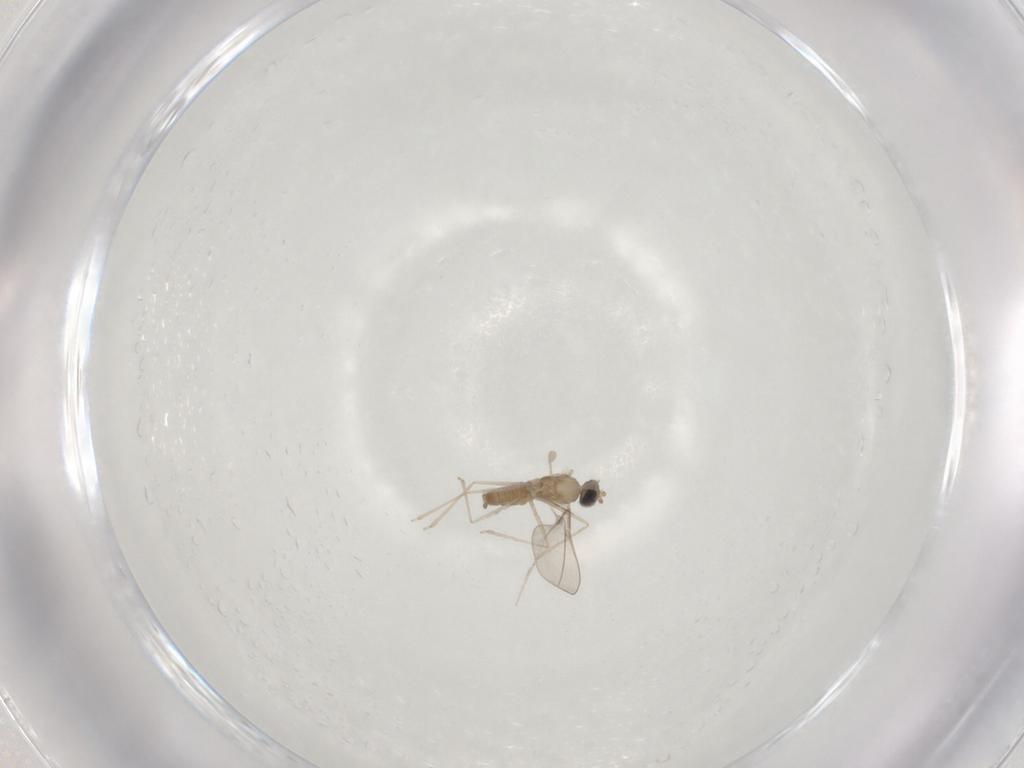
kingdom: Animalia
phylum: Arthropoda
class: Insecta
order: Diptera
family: Cecidomyiidae
